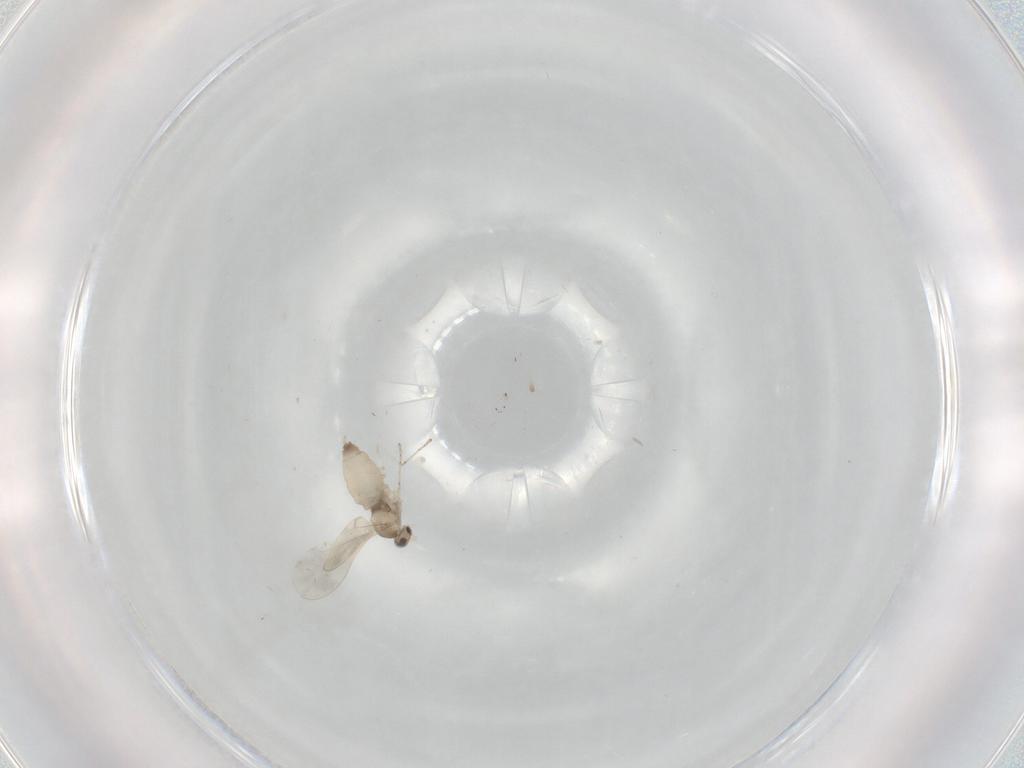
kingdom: Animalia
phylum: Arthropoda
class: Insecta
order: Diptera
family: Cecidomyiidae
